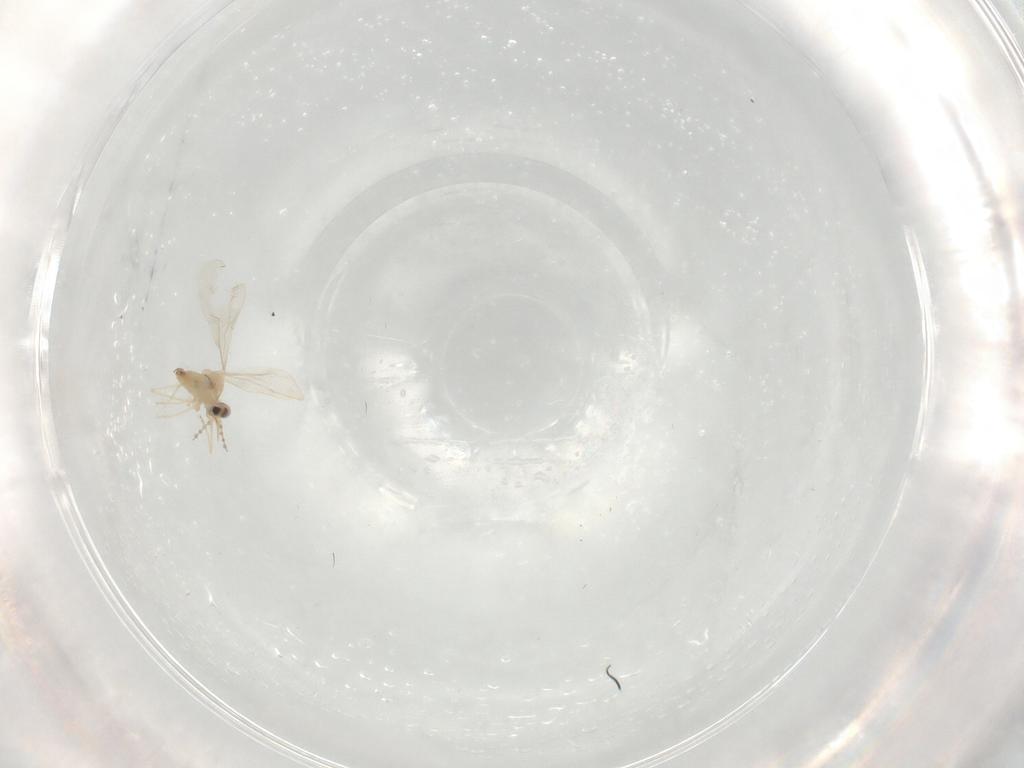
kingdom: Animalia
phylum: Arthropoda
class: Insecta
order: Diptera
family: Cecidomyiidae
